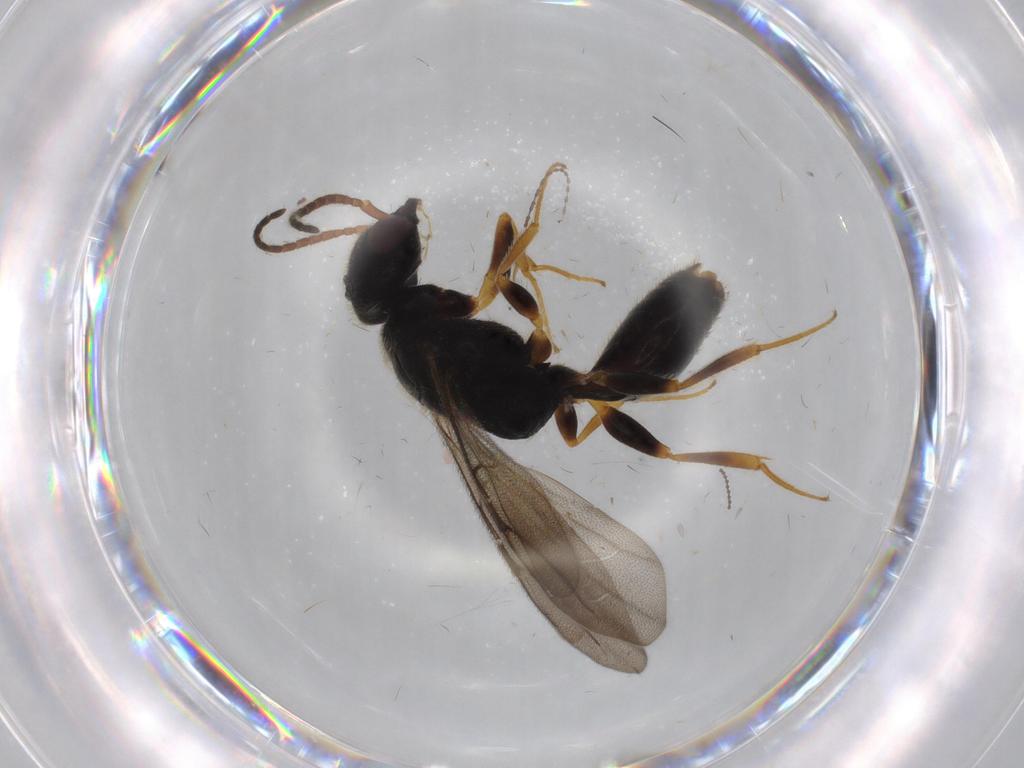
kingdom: Animalia
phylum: Arthropoda
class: Insecta
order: Hymenoptera
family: Bethylidae
